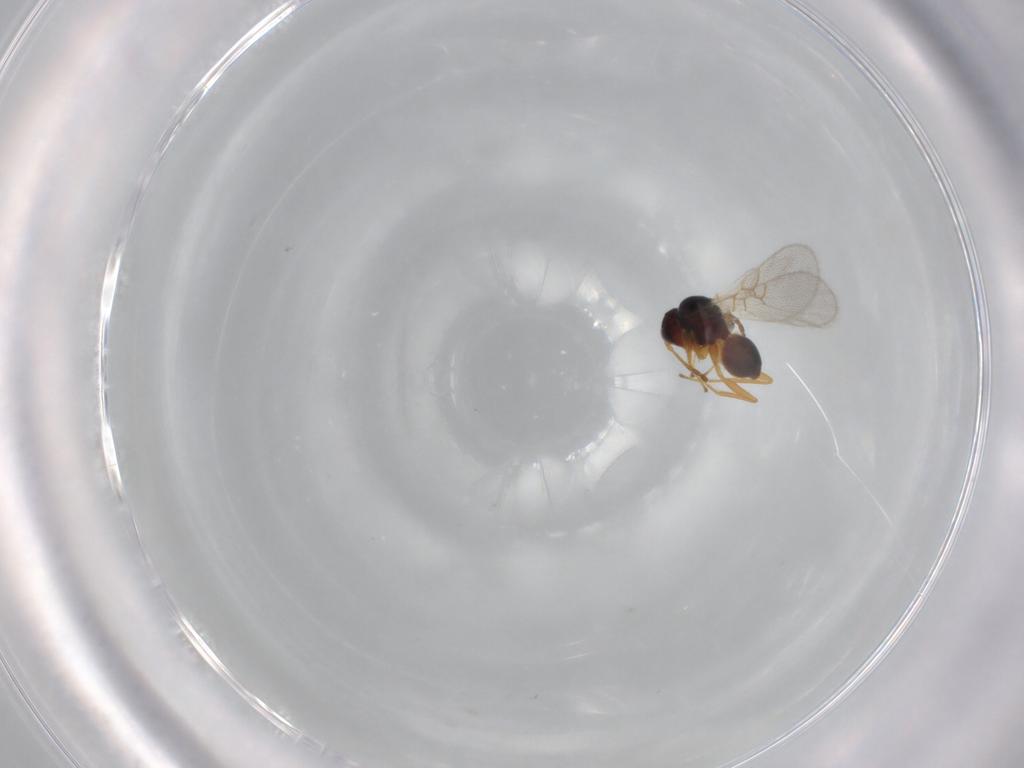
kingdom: Animalia
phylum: Arthropoda
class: Insecta
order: Hymenoptera
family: Figitidae
